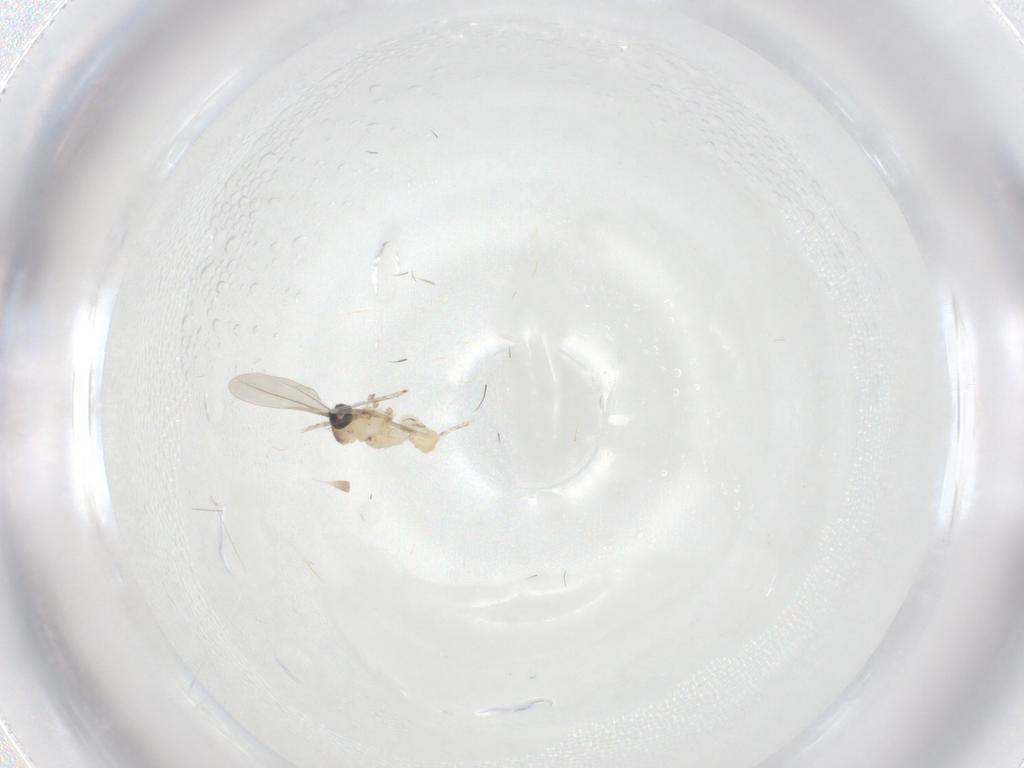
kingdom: Animalia
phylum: Arthropoda
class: Insecta
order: Diptera
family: Cecidomyiidae
